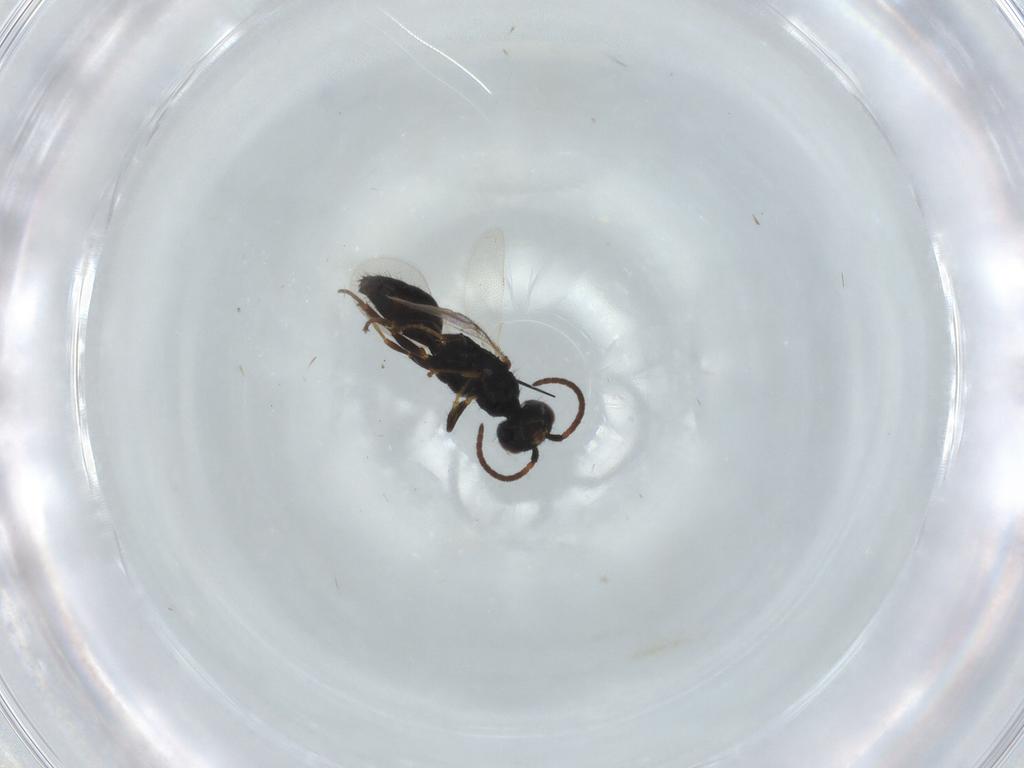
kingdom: Animalia
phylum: Arthropoda
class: Insecta
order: Hymenoptera
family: Bethylidae
